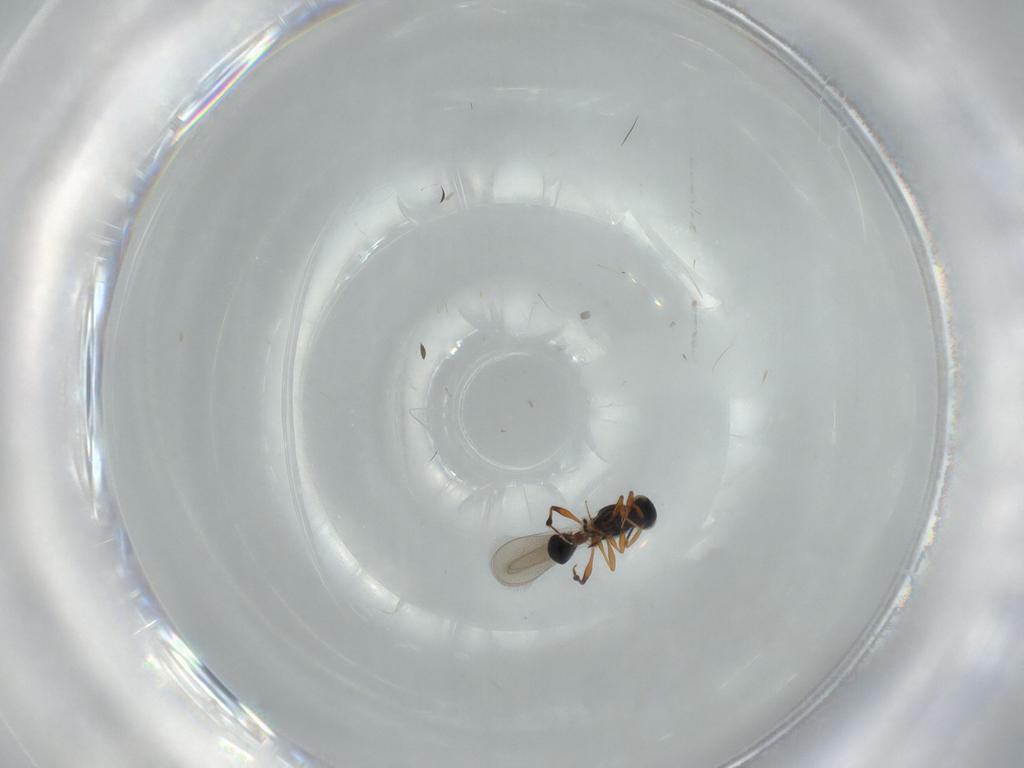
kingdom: Animalia
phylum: Arthropoda
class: Insecta
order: Hymenoptera
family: Platygastridae
